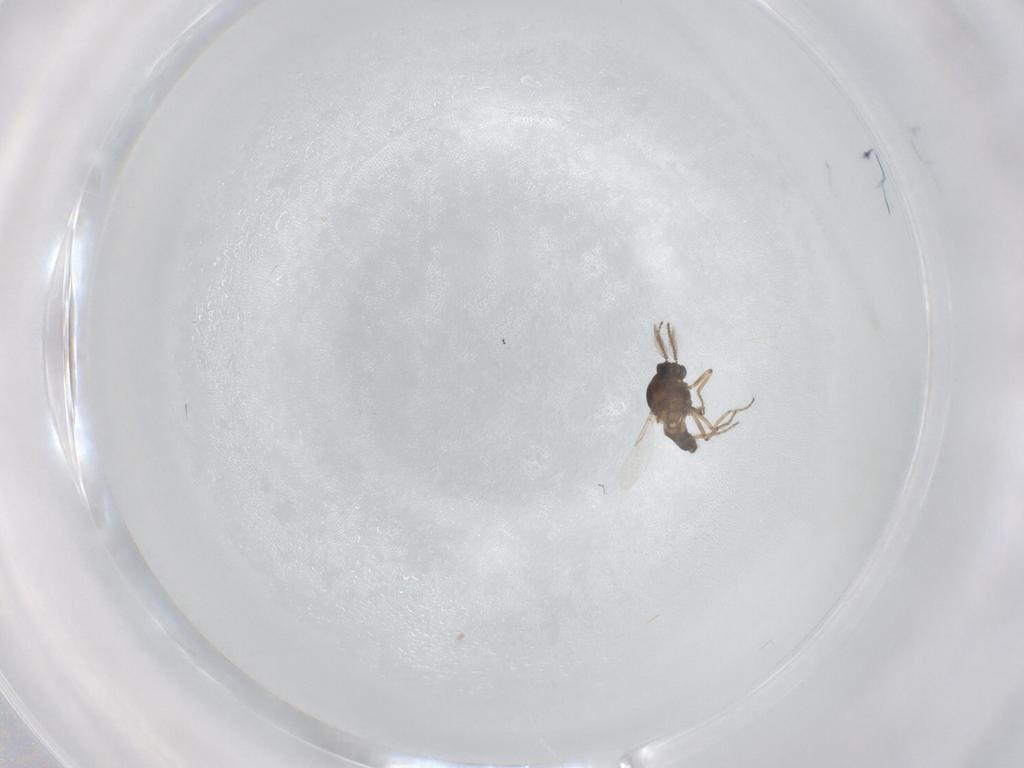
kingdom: Animalia
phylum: Arthropoda
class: Insecta
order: Diptera
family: Ceratopogonidae
